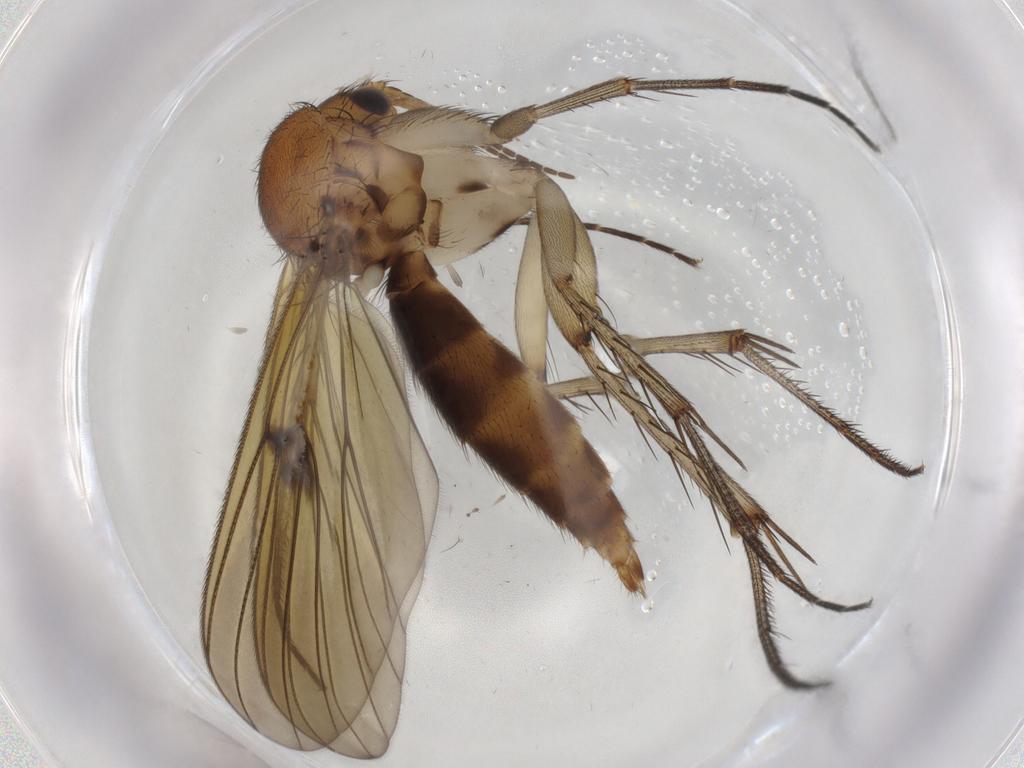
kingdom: Animalia
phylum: Arthropoda
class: Insecta
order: Diptera
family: Mycetophilidae
